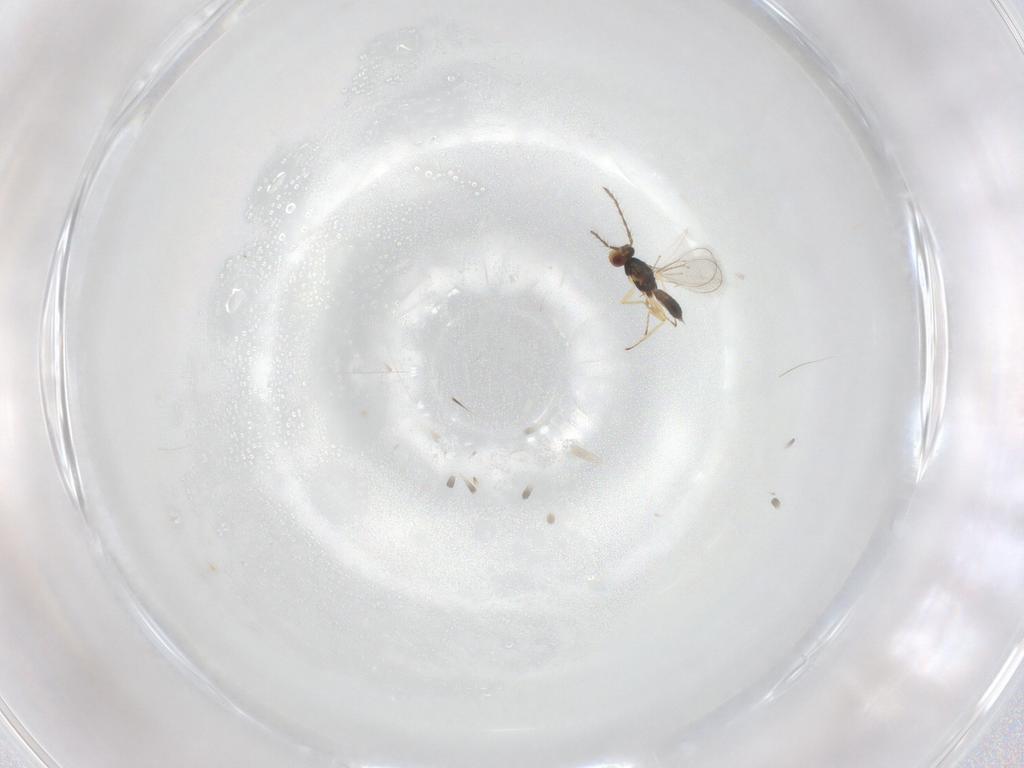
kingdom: Animalia
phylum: Arthropoda
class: Insecta
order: Hymenoptera
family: Eulophidae
